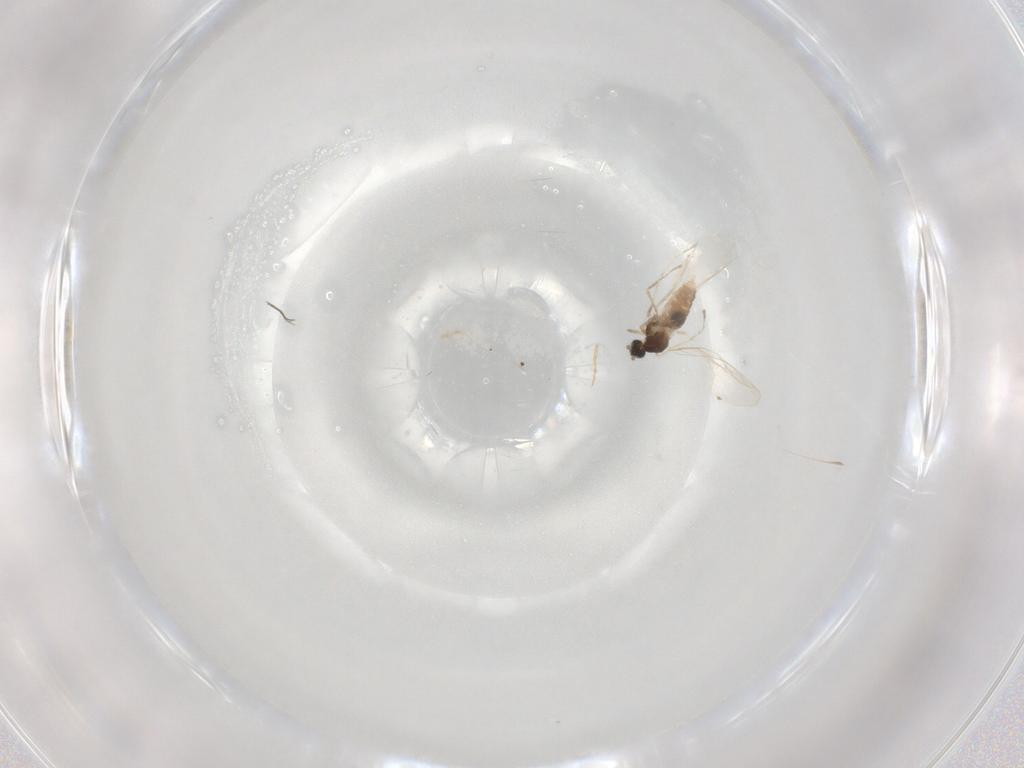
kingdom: Animalia
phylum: Arthropoda
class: Insecta
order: Diptera
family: Cecidomyiidae
